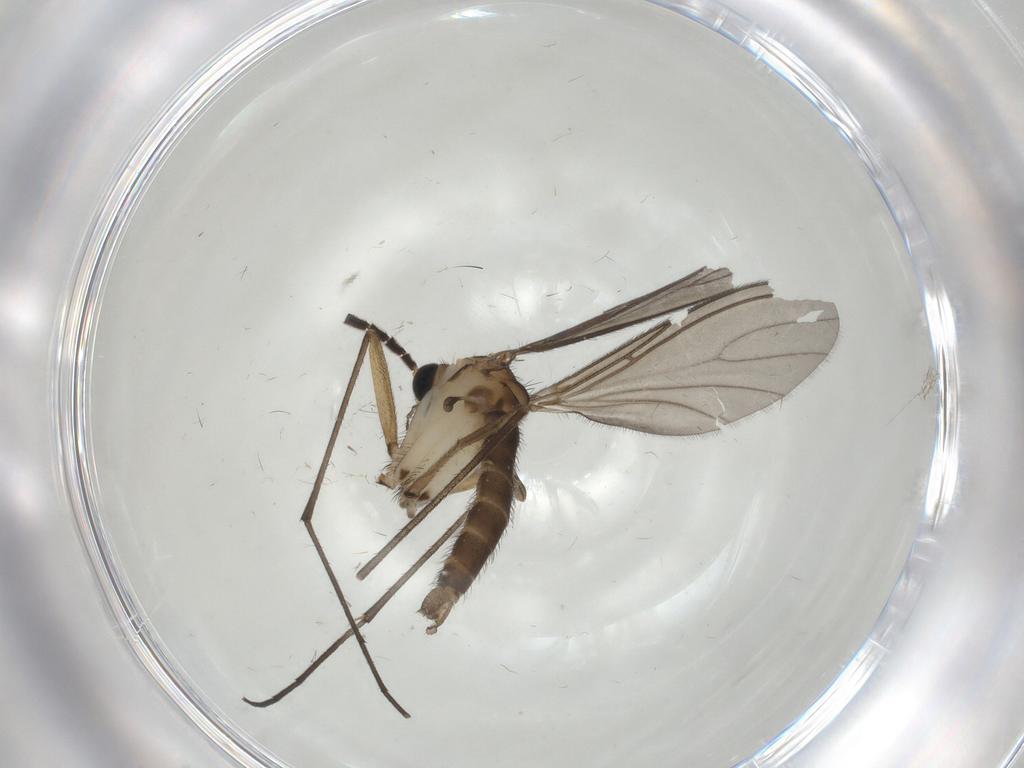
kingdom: Animalia
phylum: Arthropoda
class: Insecta
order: Diptera
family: Sciaridae
